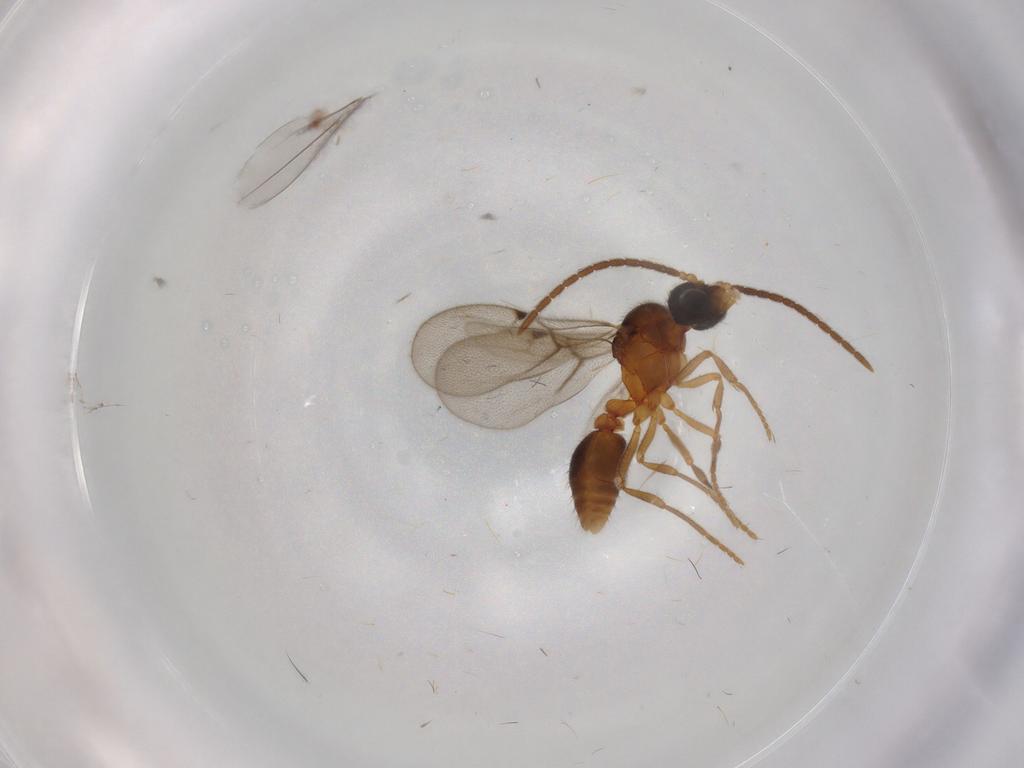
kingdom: Animalia
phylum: Arthropoda
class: Insecta
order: Hymenoptera
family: Formicidae
